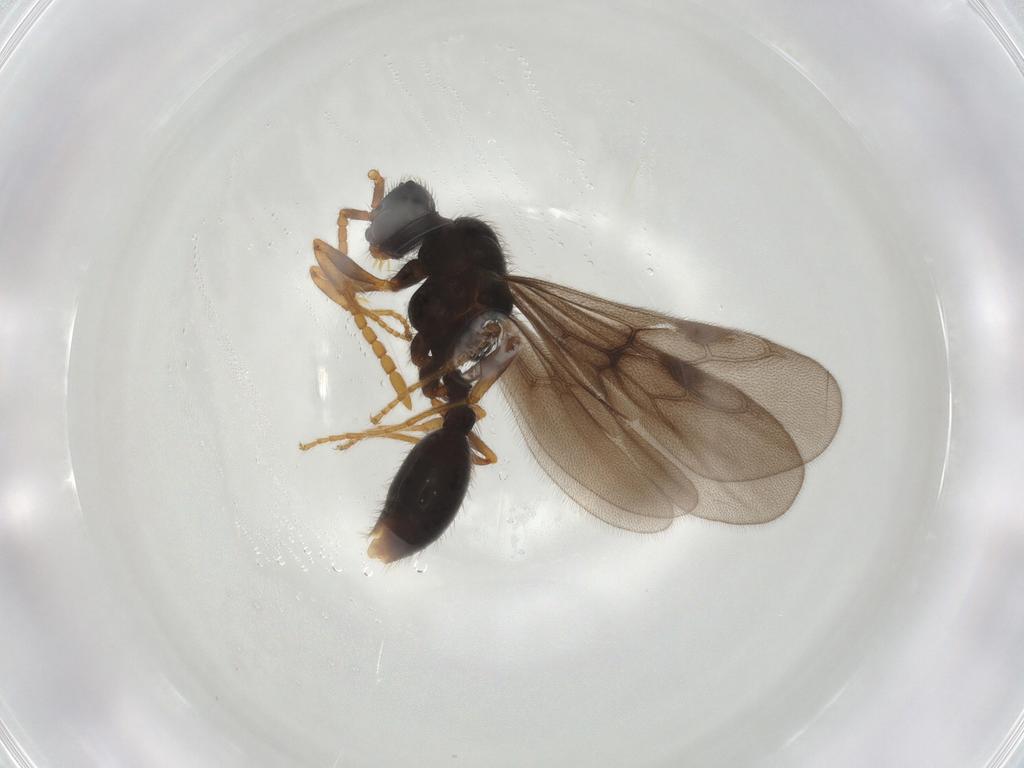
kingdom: Animalia
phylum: Arthropoda
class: Insecta
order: Hymenoptera
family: Formicidae
